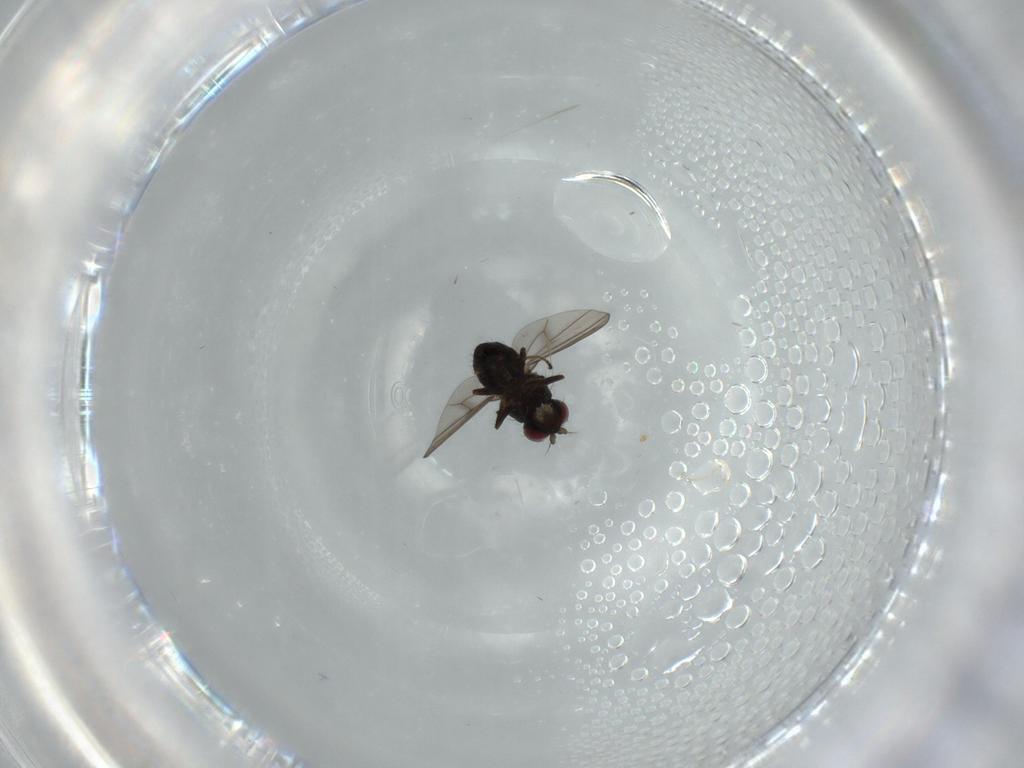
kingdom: Animalia
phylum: Arthropoda
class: Insecta
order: Diptera
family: Ephydridae
